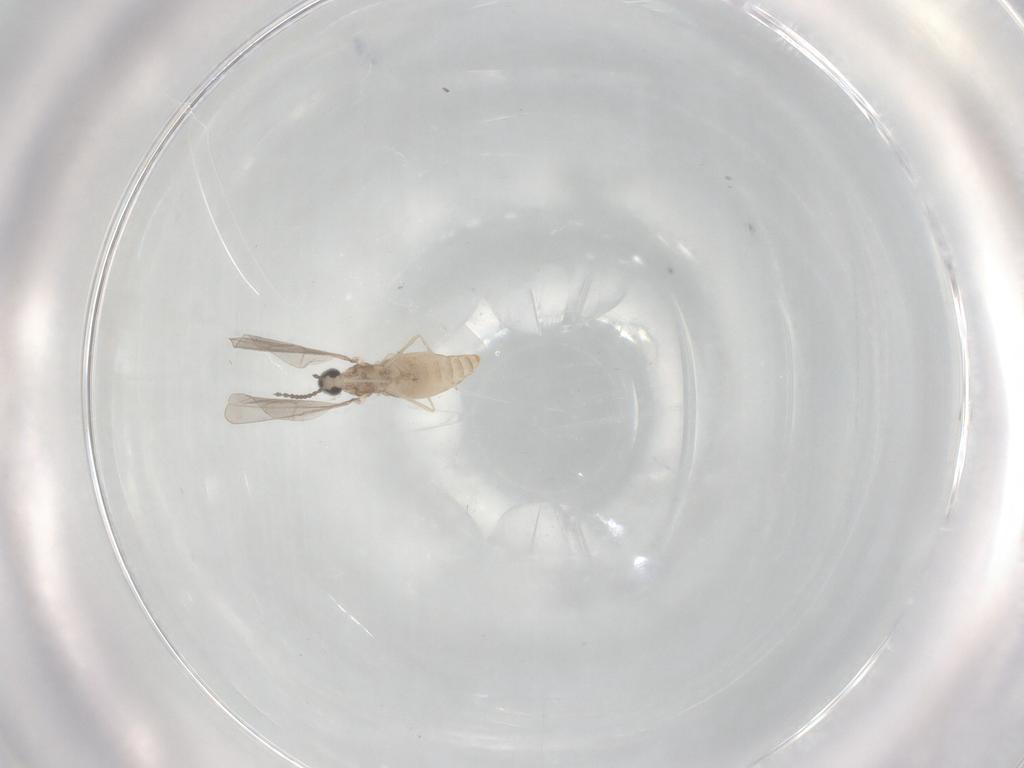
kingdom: Animalia
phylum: Arthropoda
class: Insecta
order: Diptera
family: Cecidomyiidae
